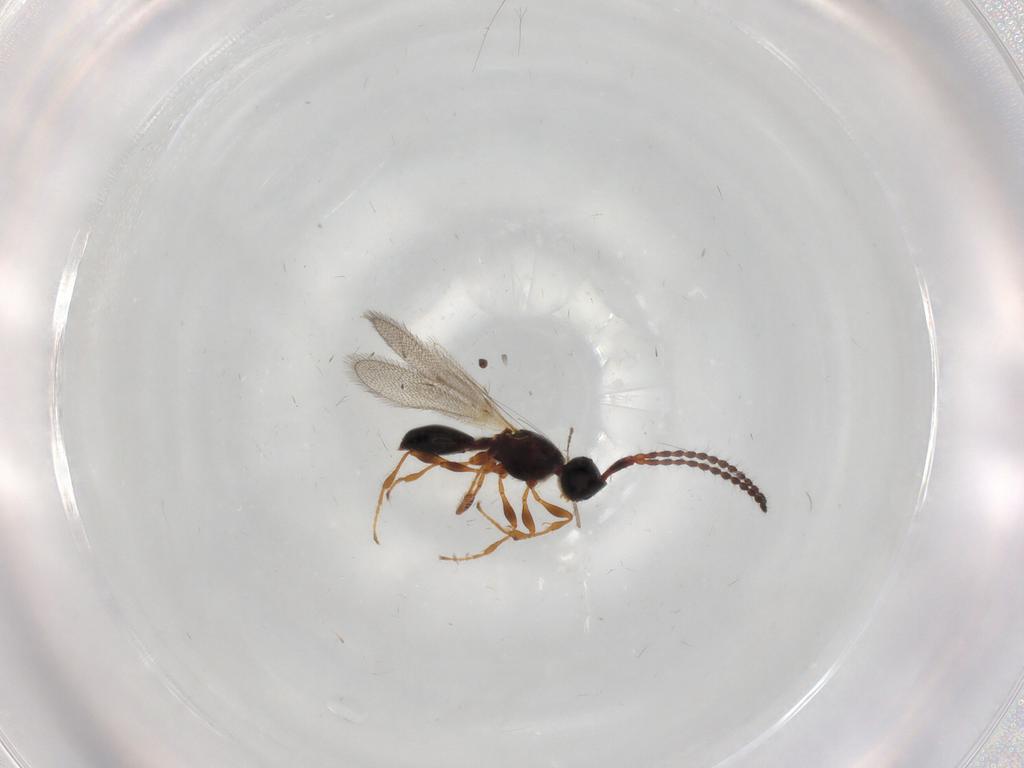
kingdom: Animalia
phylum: Arthropoda
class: Insecta
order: Hymenoptera
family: Diapriidae
